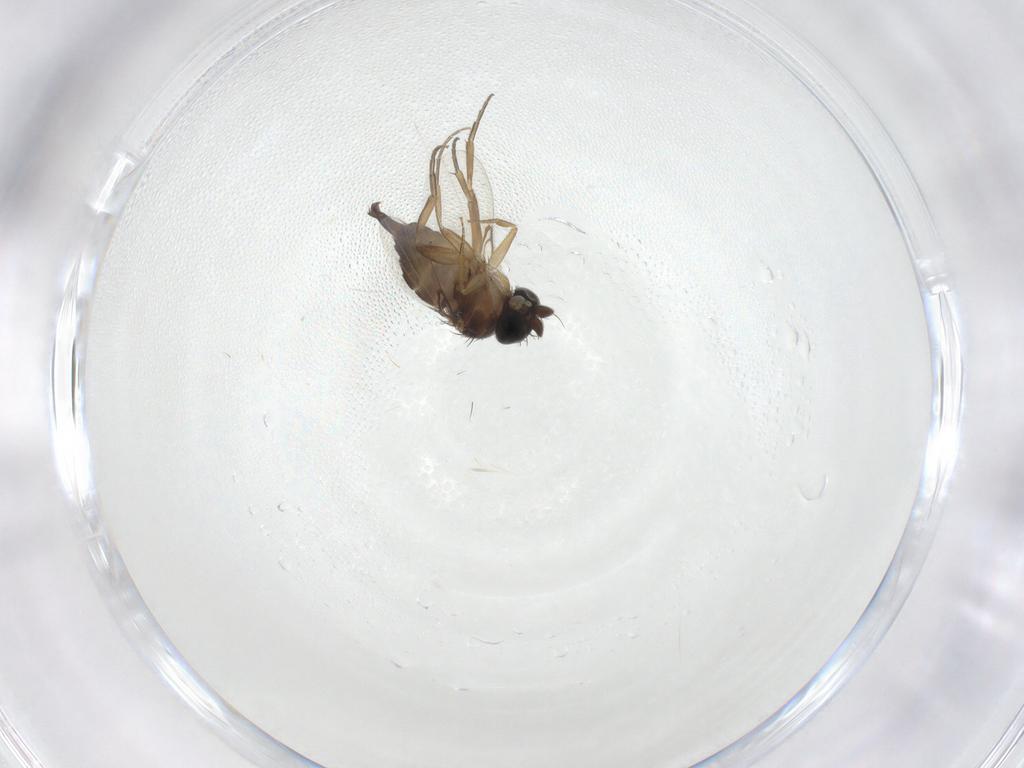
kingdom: Animalia
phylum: Arthropoda
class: Insecta
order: Diptera
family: Phoridae
